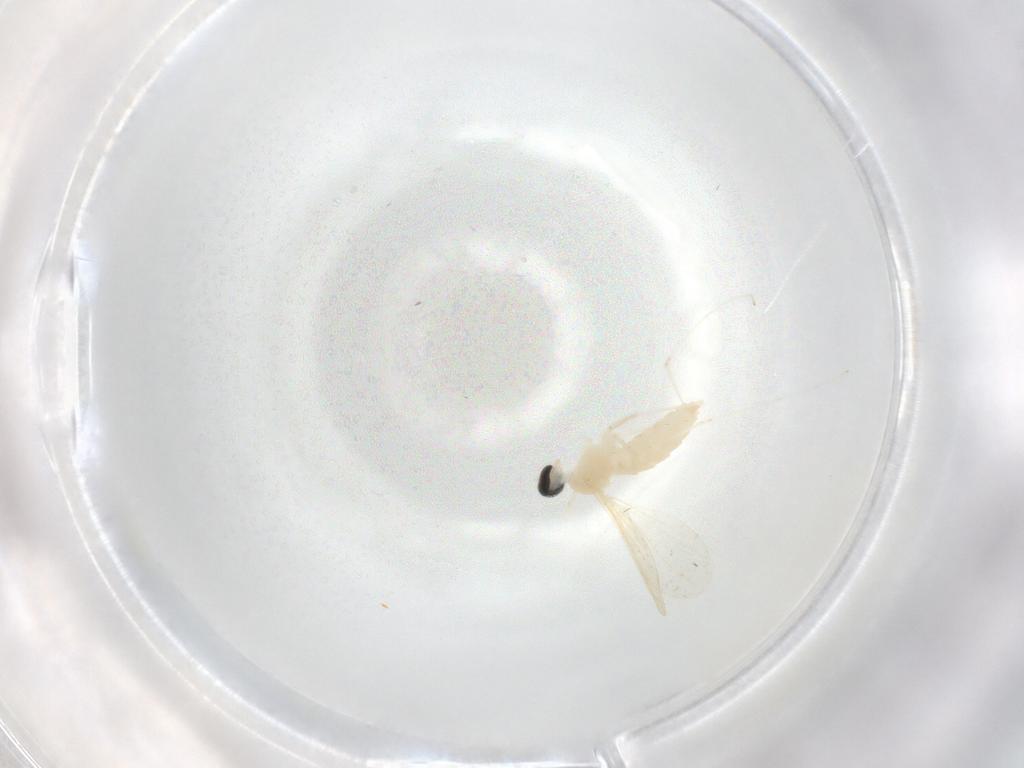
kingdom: Animalia
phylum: Arthropoda
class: Insecta
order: Diptera
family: Cecidomyiidae
